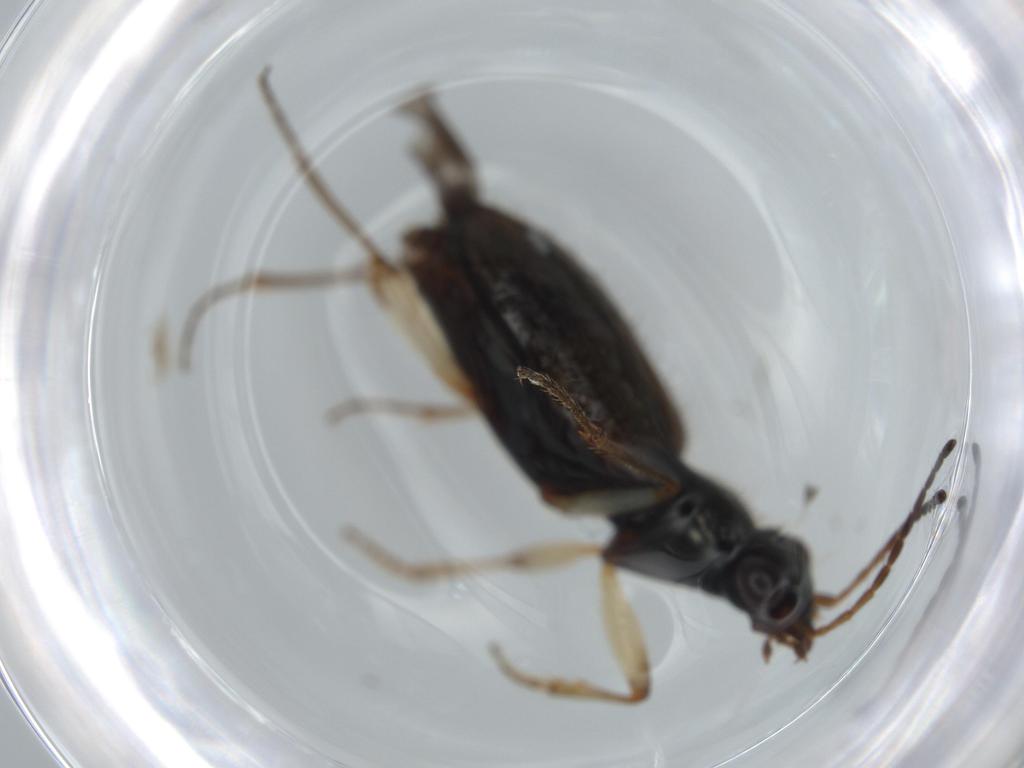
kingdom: Animalia
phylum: Arthropoda
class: Insecta
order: Coleoptera
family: Carabidae
